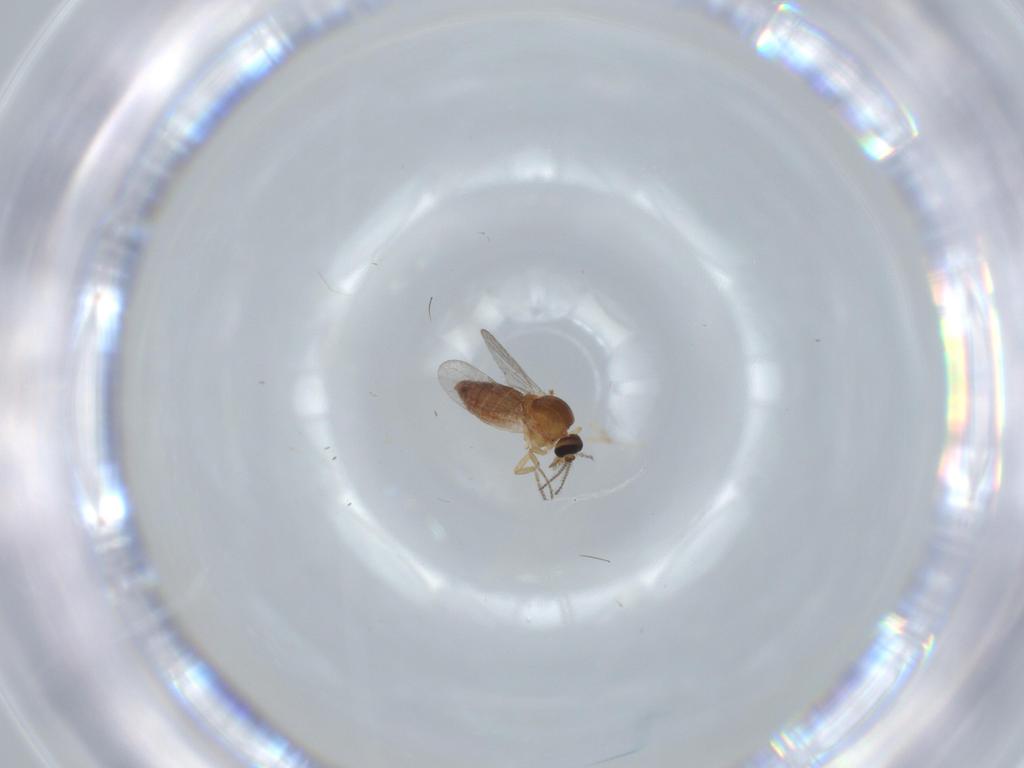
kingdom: Animalia
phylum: Arthropoda
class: Insecta
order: Diptera
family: Ceratopogonidae
